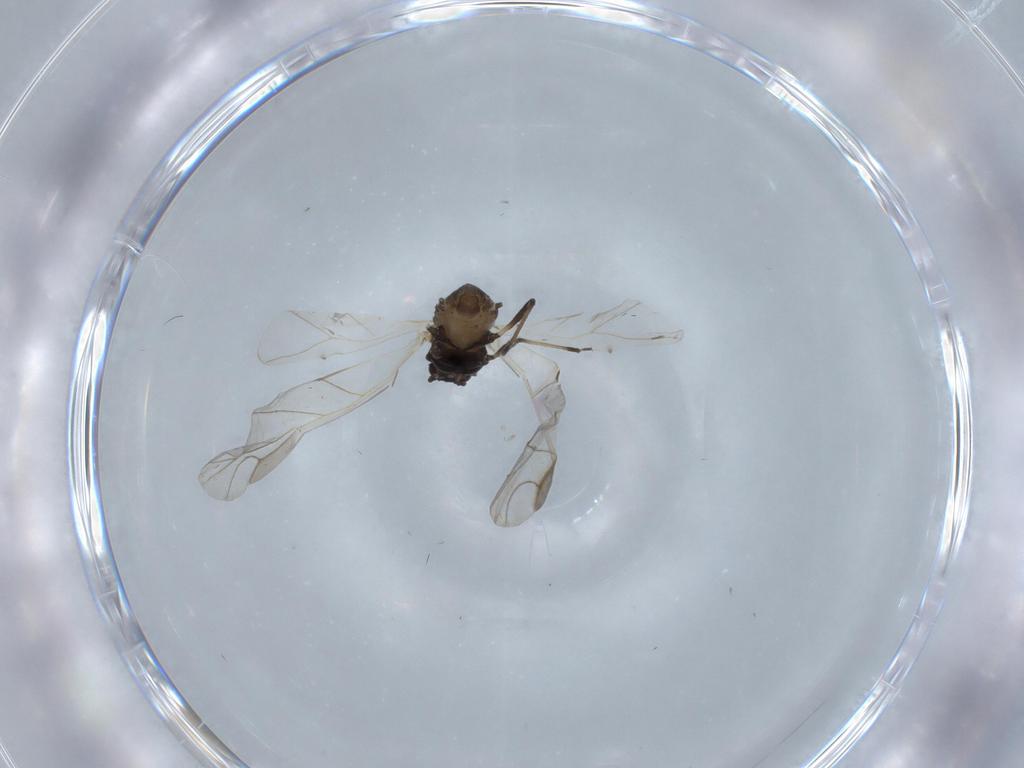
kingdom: Animalia
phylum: Arthropoda
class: Insecta
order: Hemiptera
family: Aphididae
